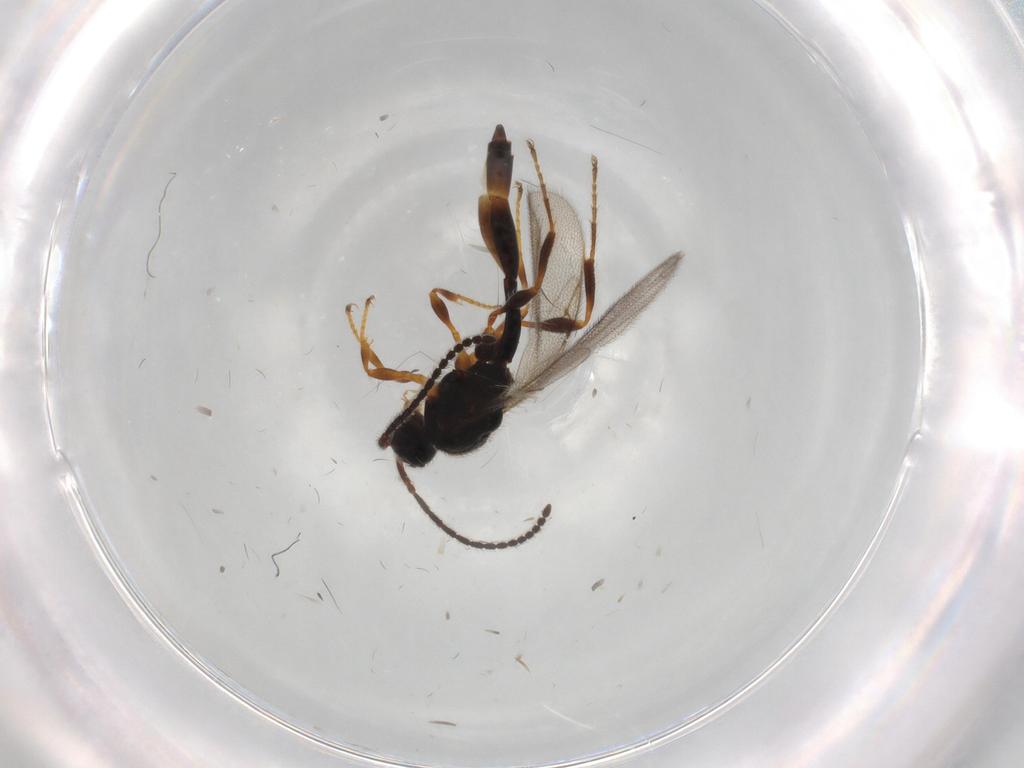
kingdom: Animalia
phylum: Arthropoda
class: Insecta
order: Hymenoptera
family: Diapriidae
